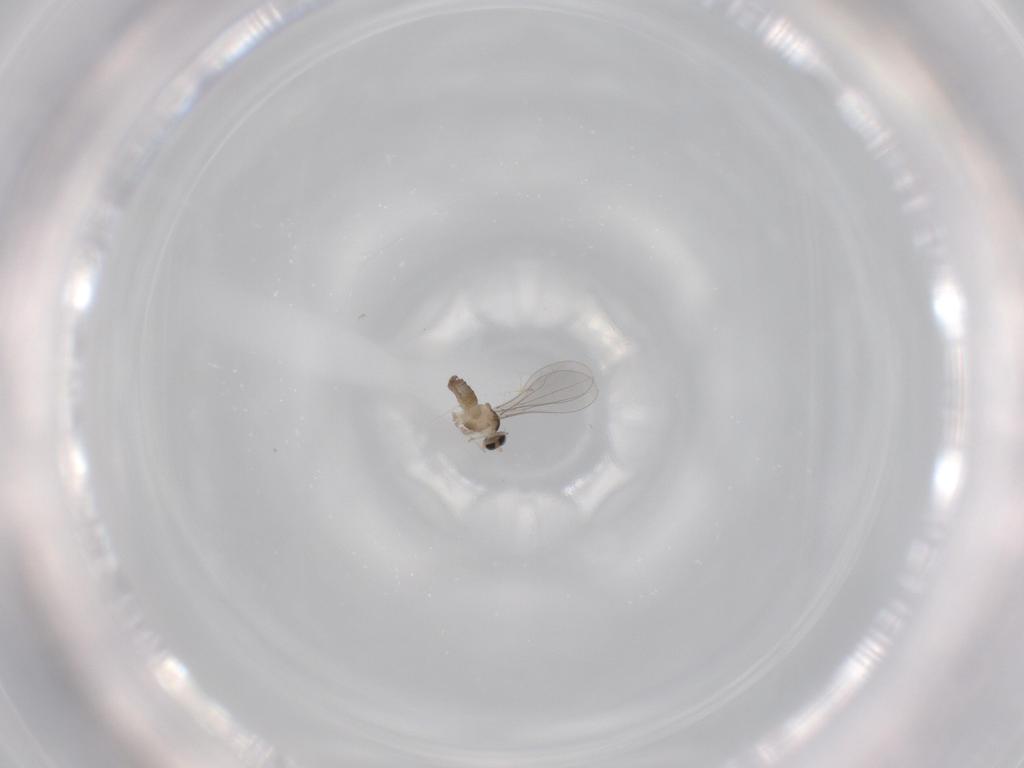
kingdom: Animalia
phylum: Arthropoda
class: Insecta
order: Diptera
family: Cecidomyiidae
